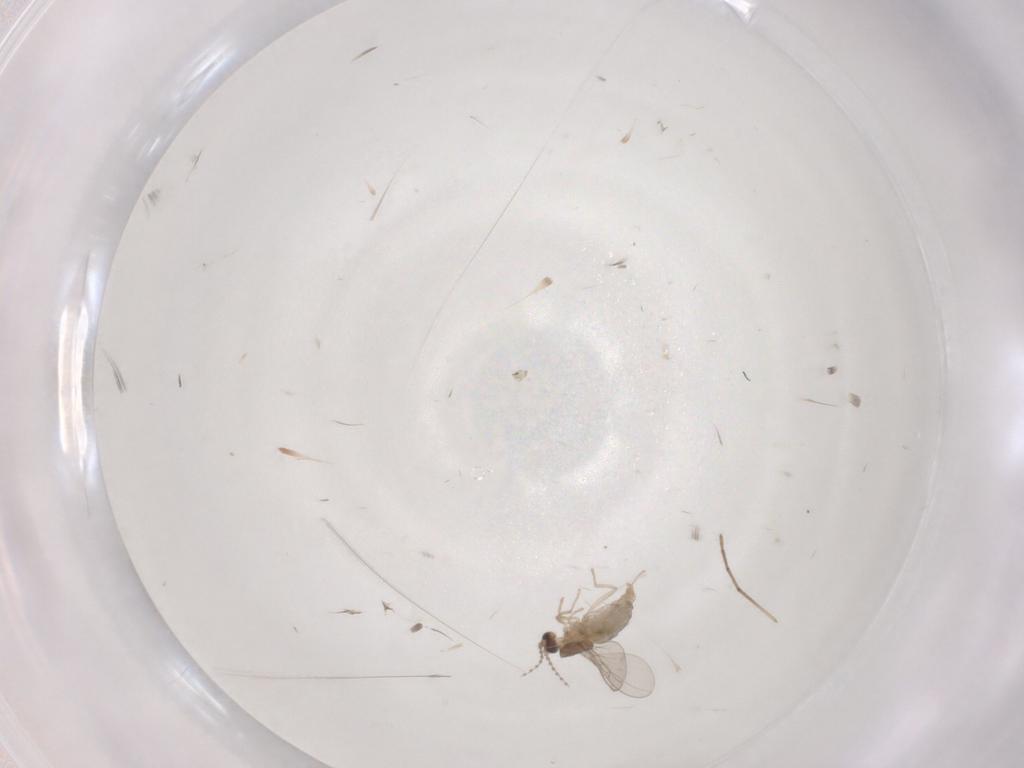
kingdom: Animalia
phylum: Arthropoda
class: Insecta
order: Diptera
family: Cecidomyiidae
